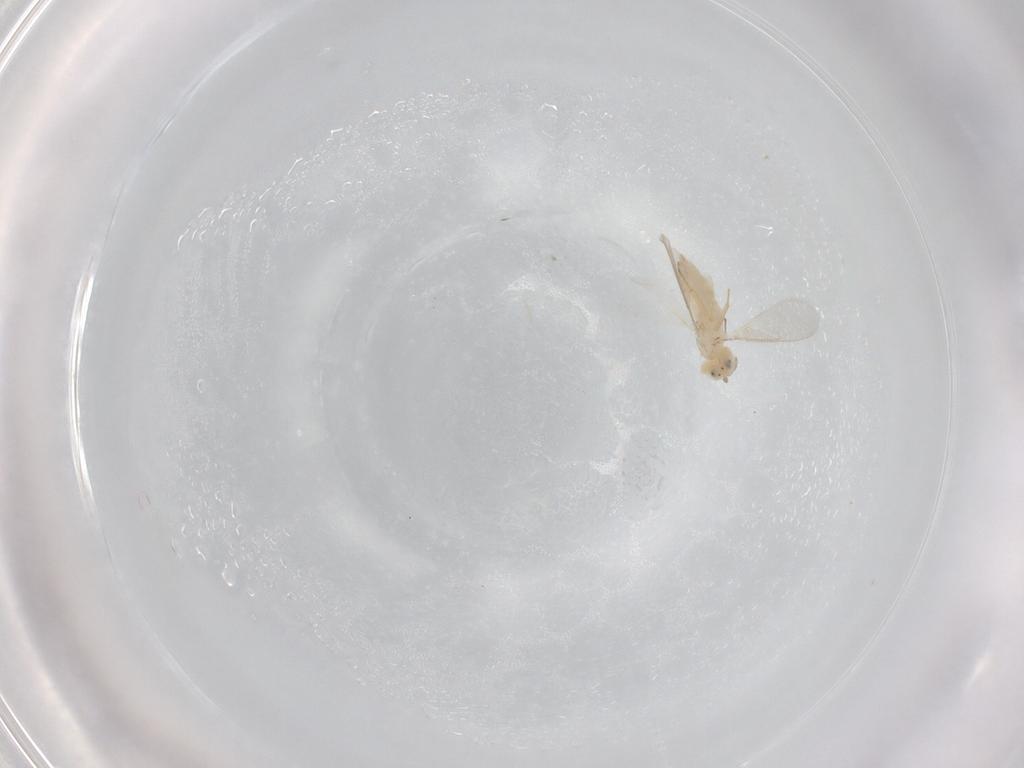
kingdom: Animalia
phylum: Arthropoda
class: Insecta
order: Hymenoptera
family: Aphelinidae
